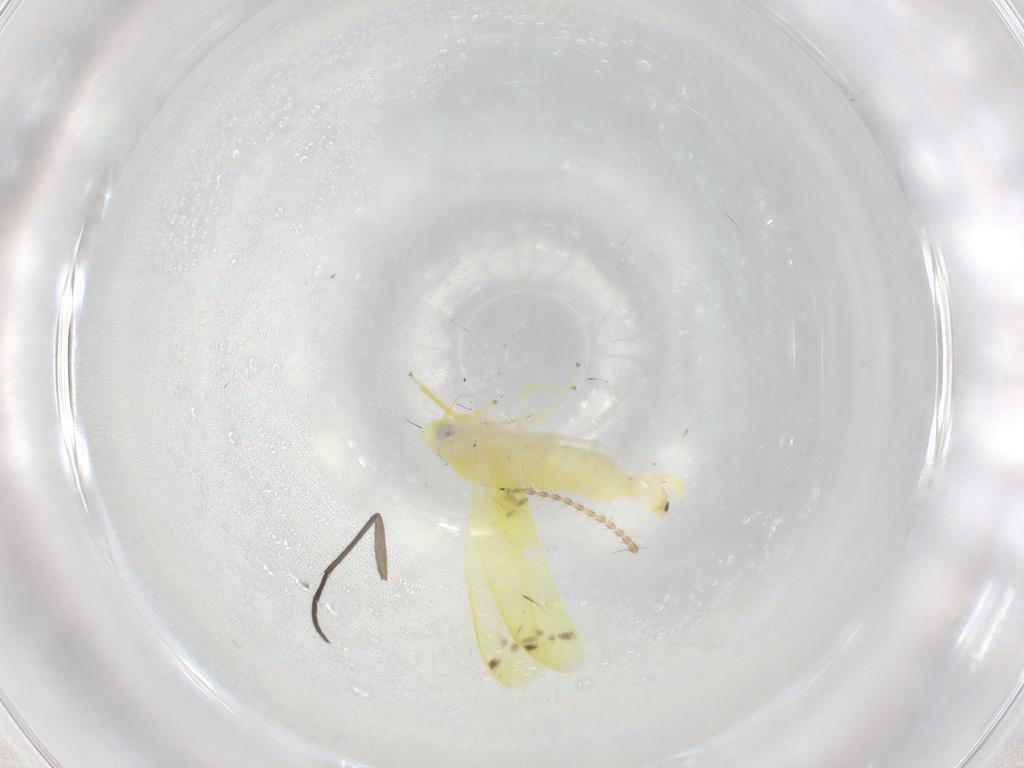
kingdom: Animalia
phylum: Arthropoda
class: Insecta
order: Hemiptera
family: Cicadellidae
